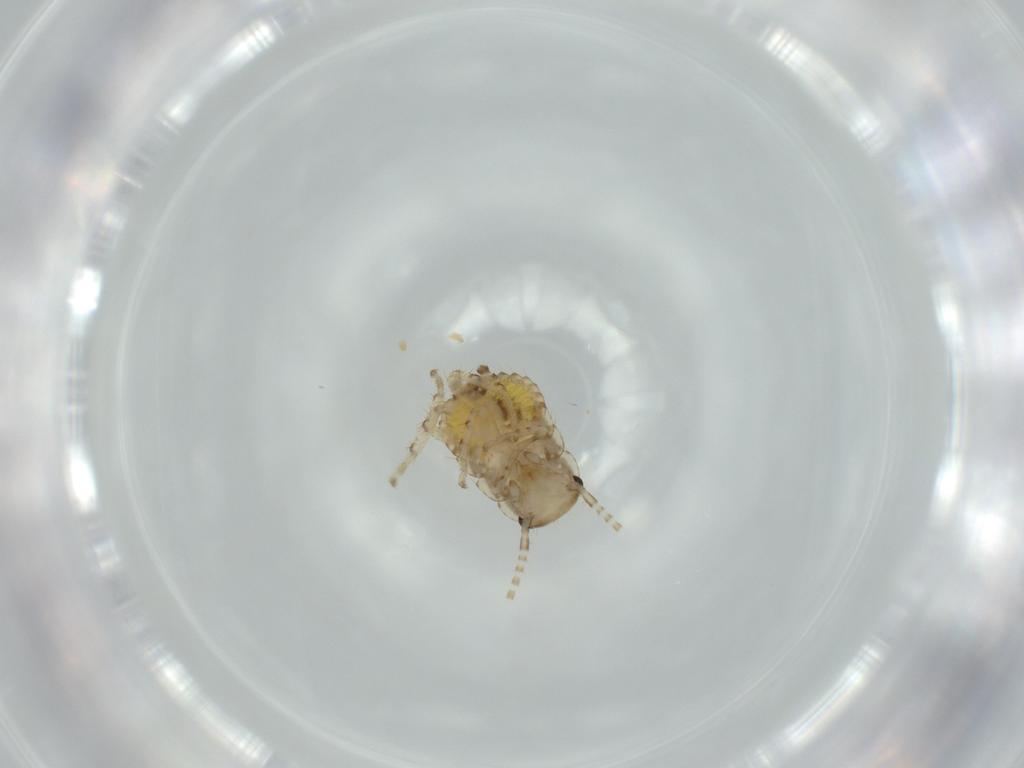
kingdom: Animalia
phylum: Arthropoda
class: Insecta
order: Blattodea
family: Ectobiidae
